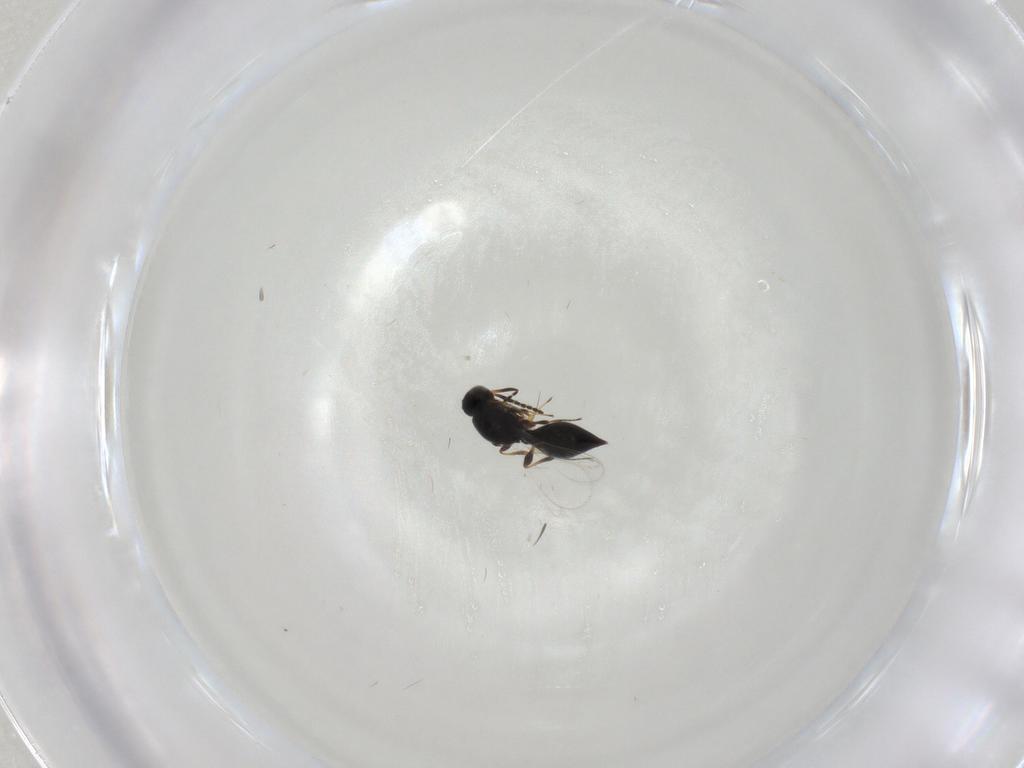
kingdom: Animalia
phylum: Arthropoda
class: Insecta
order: Hymenoptera
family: Platygastridae
